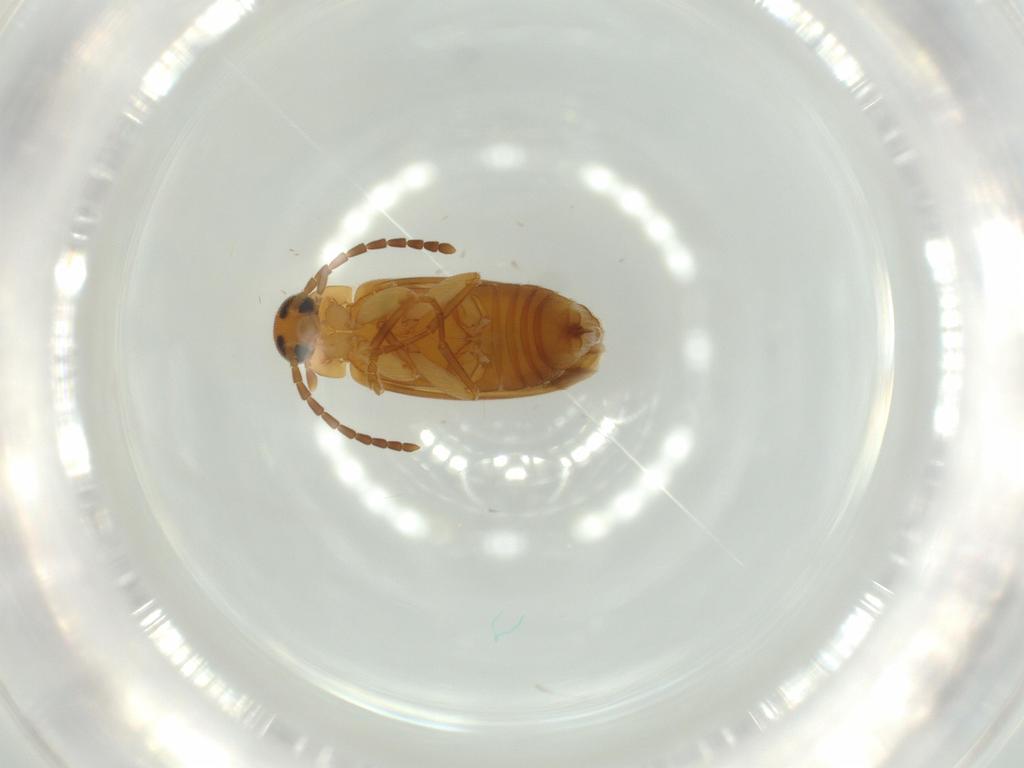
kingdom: Animalia
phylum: Arthropoda
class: Insecta
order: Coleoptera
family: Scraptiidae
